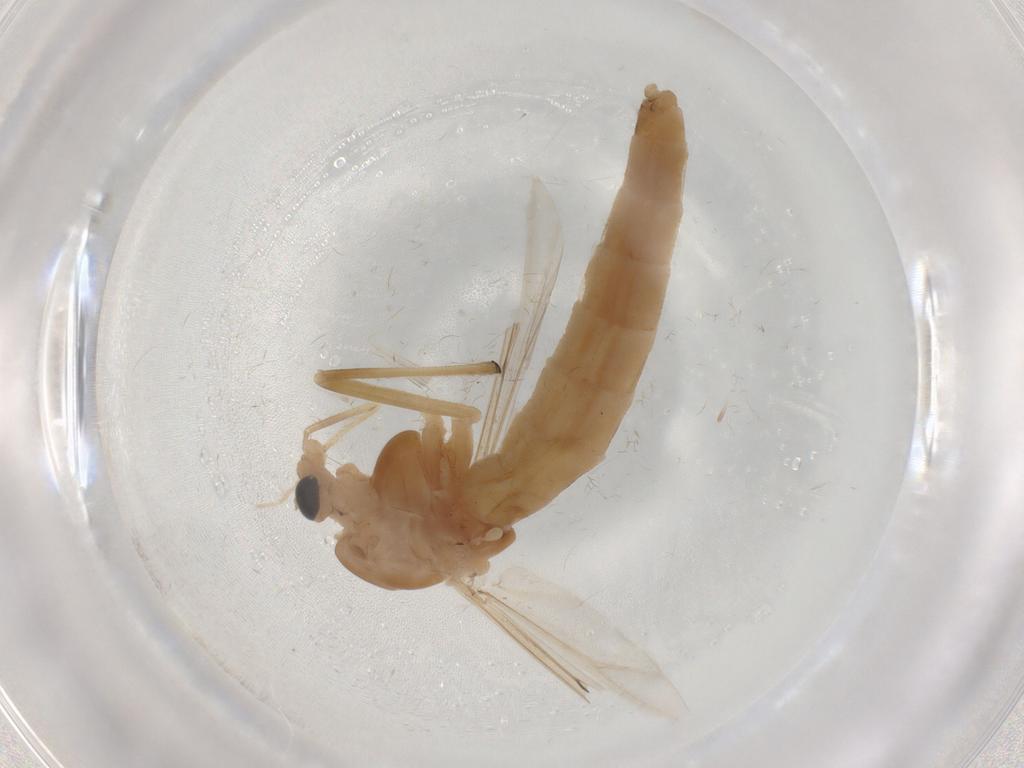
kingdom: Animalia
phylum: Arthropoda
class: Insecta
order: Diptera
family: Chironomidae
